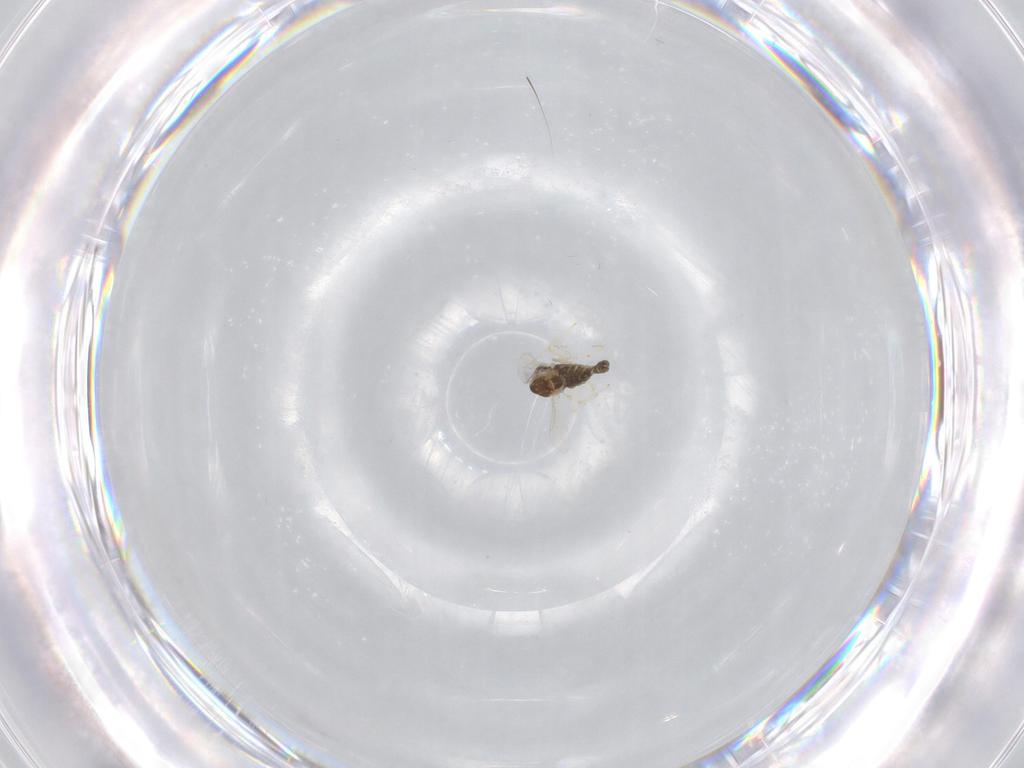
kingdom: Animalia
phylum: Arthropoda
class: Insecta
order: Diptera
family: Chironomidae
